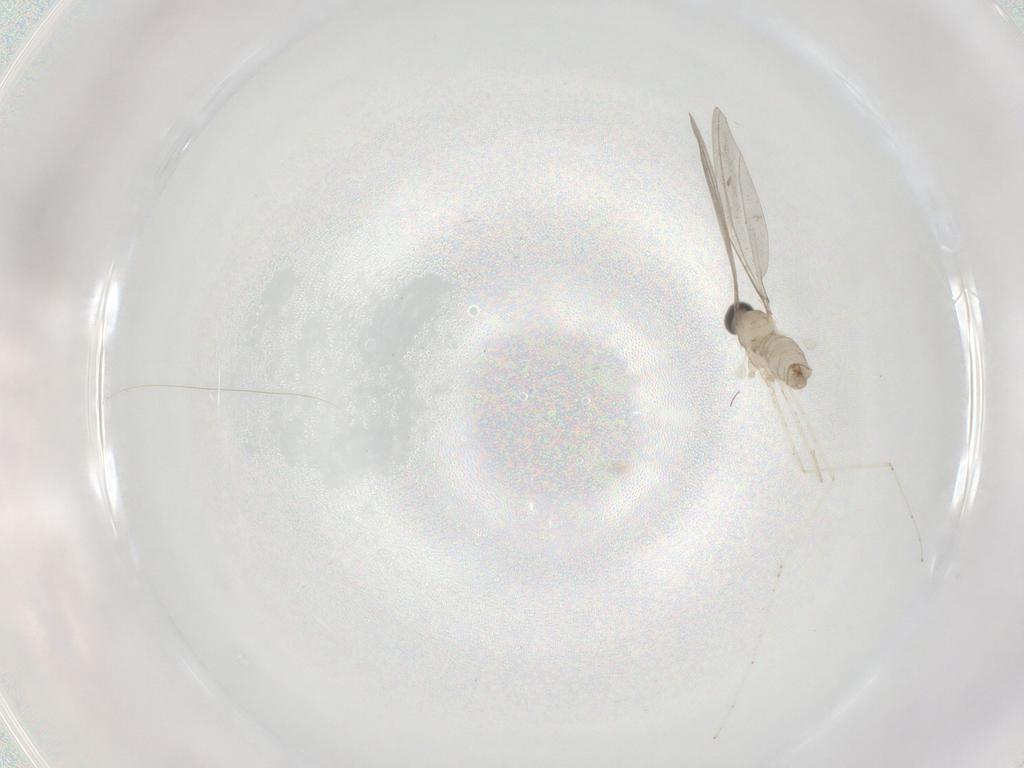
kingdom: Animalia
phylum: Arthropoda
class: Insecta
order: Diptera
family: Cecidomyiidae
